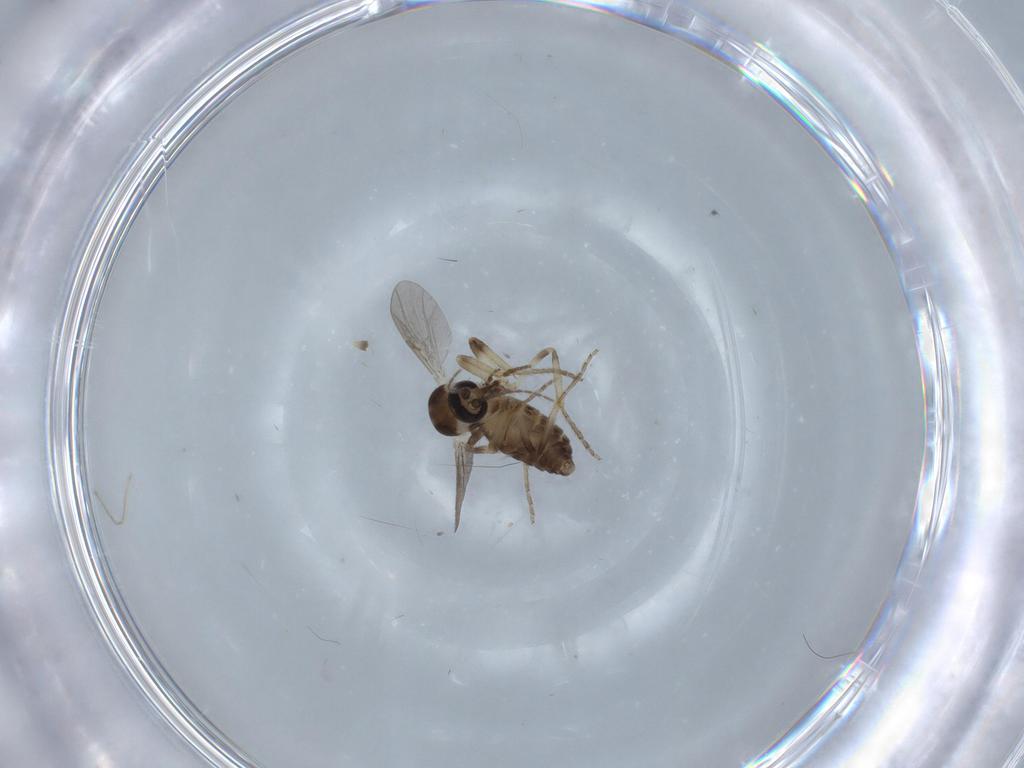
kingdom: Animalia
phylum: Arthropoda
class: Insecta
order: Diptera
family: Ceratopogonidae
